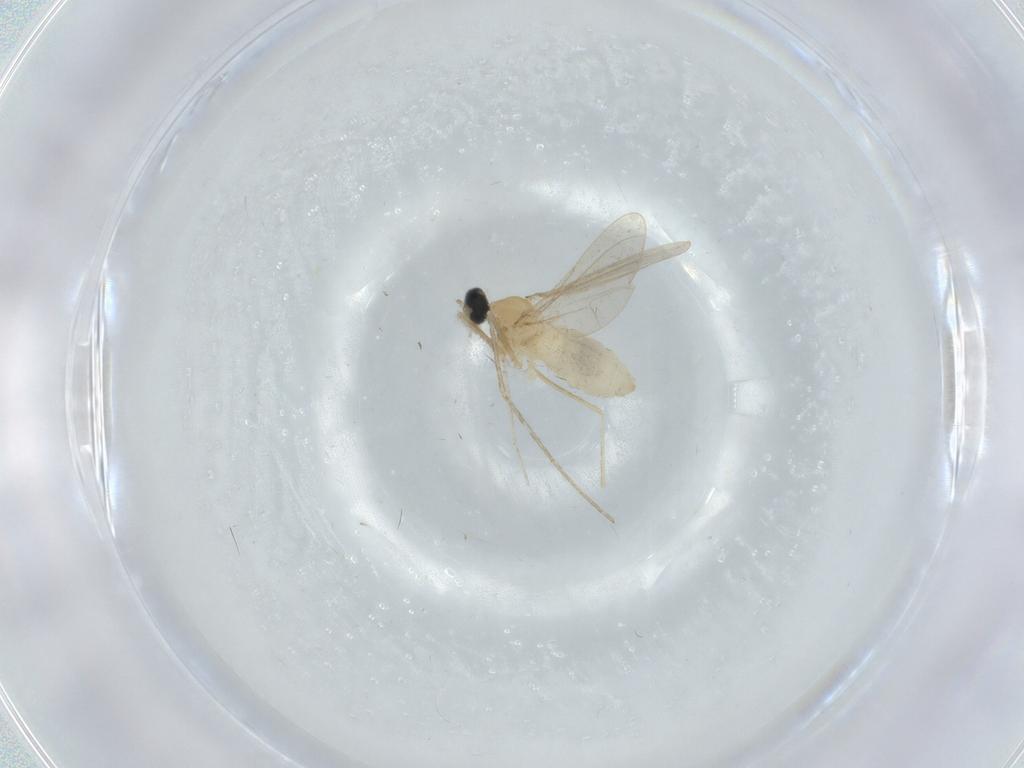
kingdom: Animalia
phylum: Arthropoda
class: Insecta
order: Diptera
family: Cecidomyiidae
